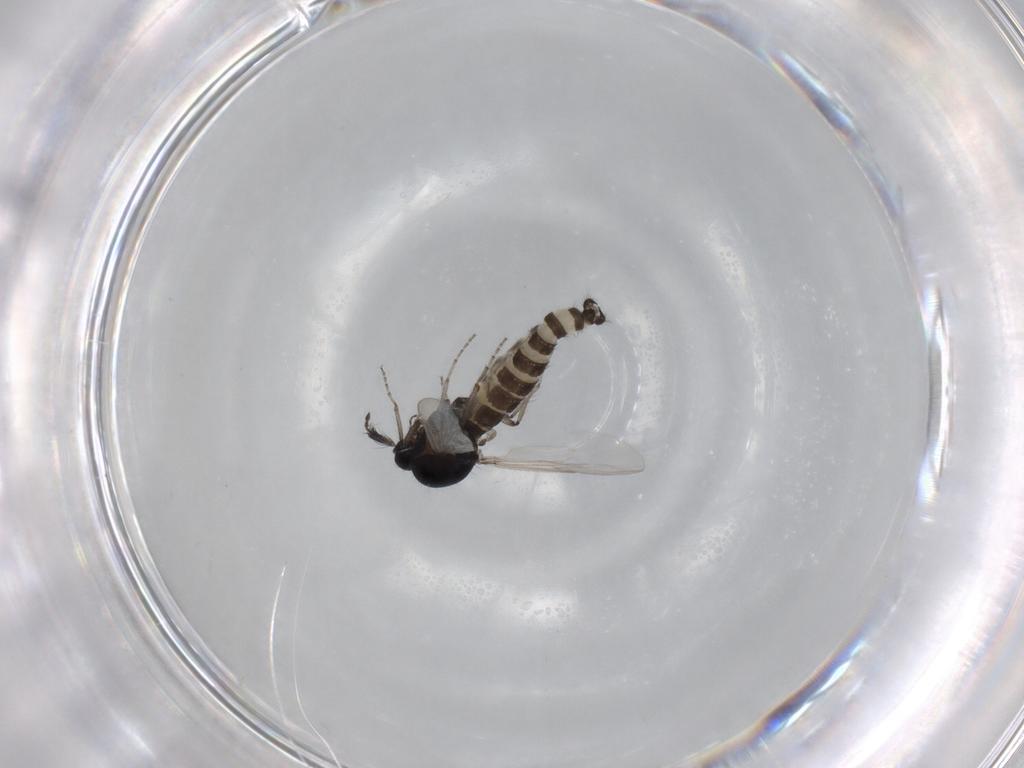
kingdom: Animalia
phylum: Arthropoda
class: Insecta
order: Diptera
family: Ceratopogonidae
